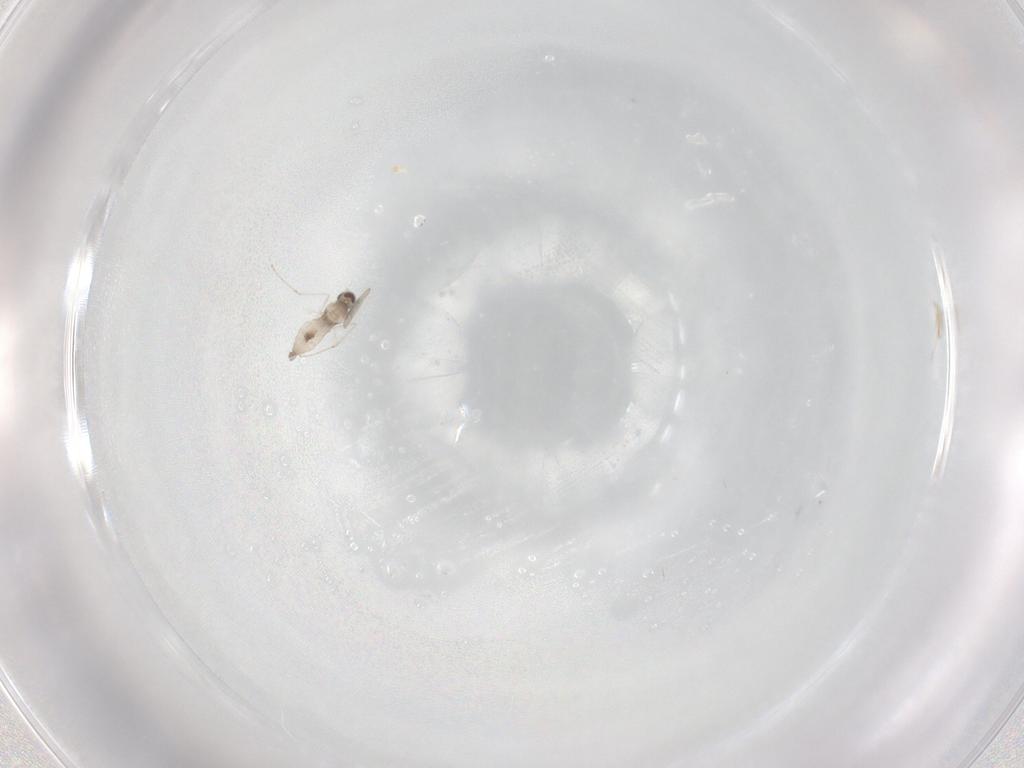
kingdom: Animalia
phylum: Arthropoda
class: Insecta
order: Diptera
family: Cecidomyiidae
